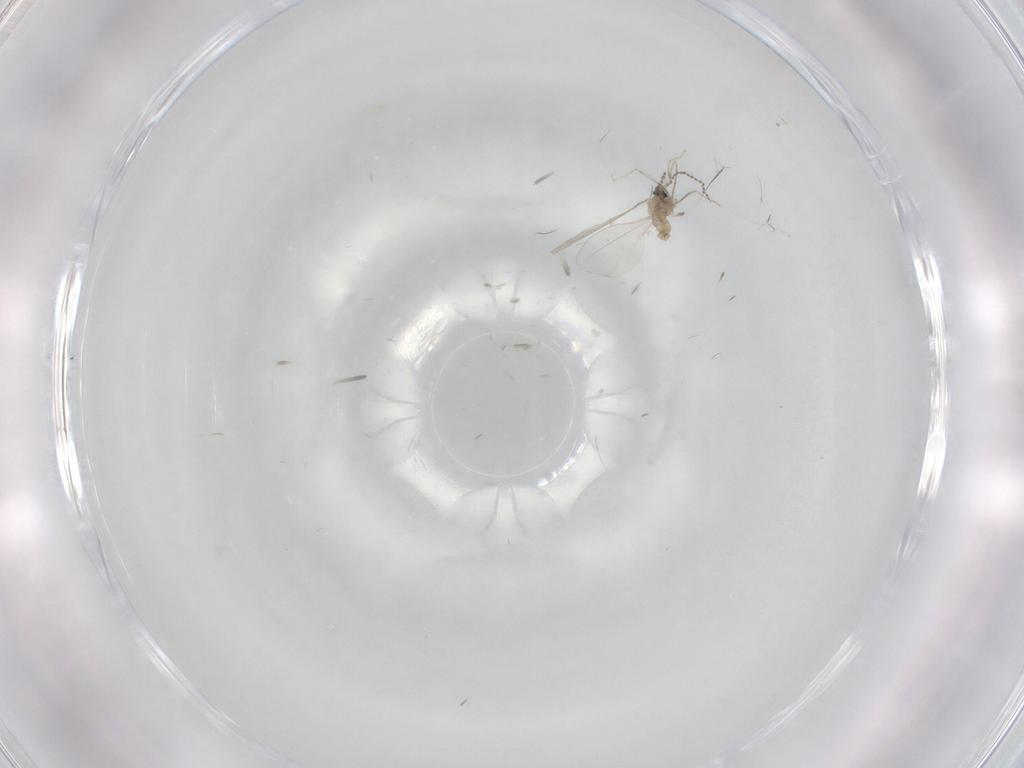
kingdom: Animalia
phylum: Arthropoda
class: Insecta
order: Diptera
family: Cecidomyiidae
